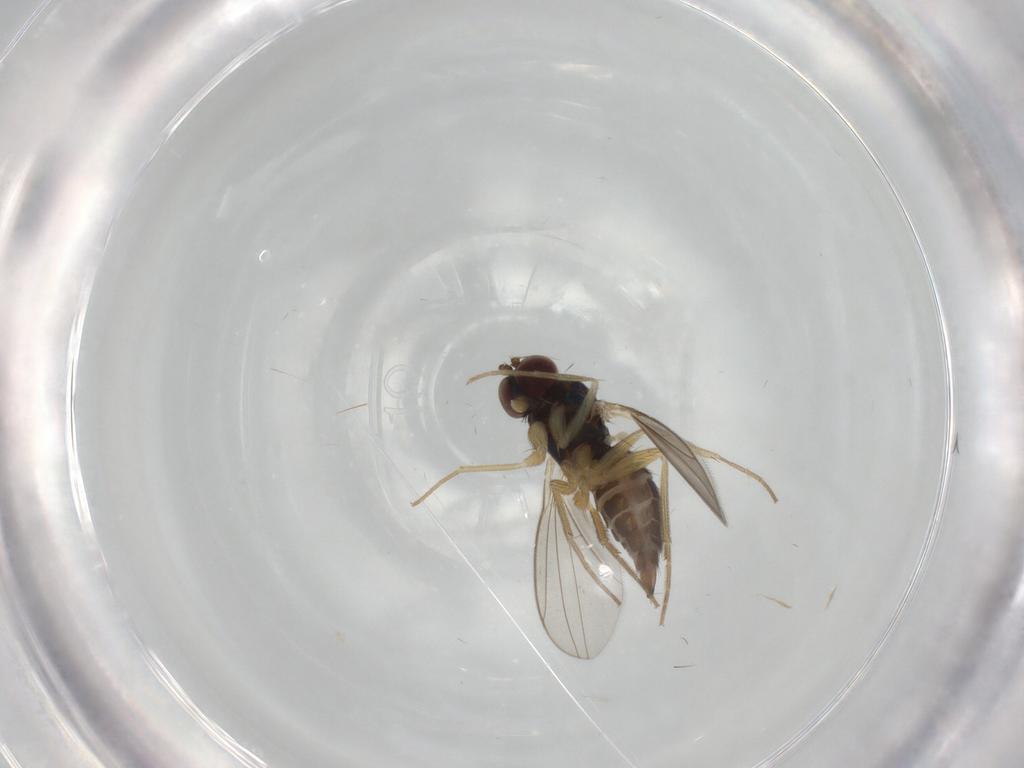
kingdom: Animalia
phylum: Arthropoda
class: Insecta
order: Diptera
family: Dolichopodidae
